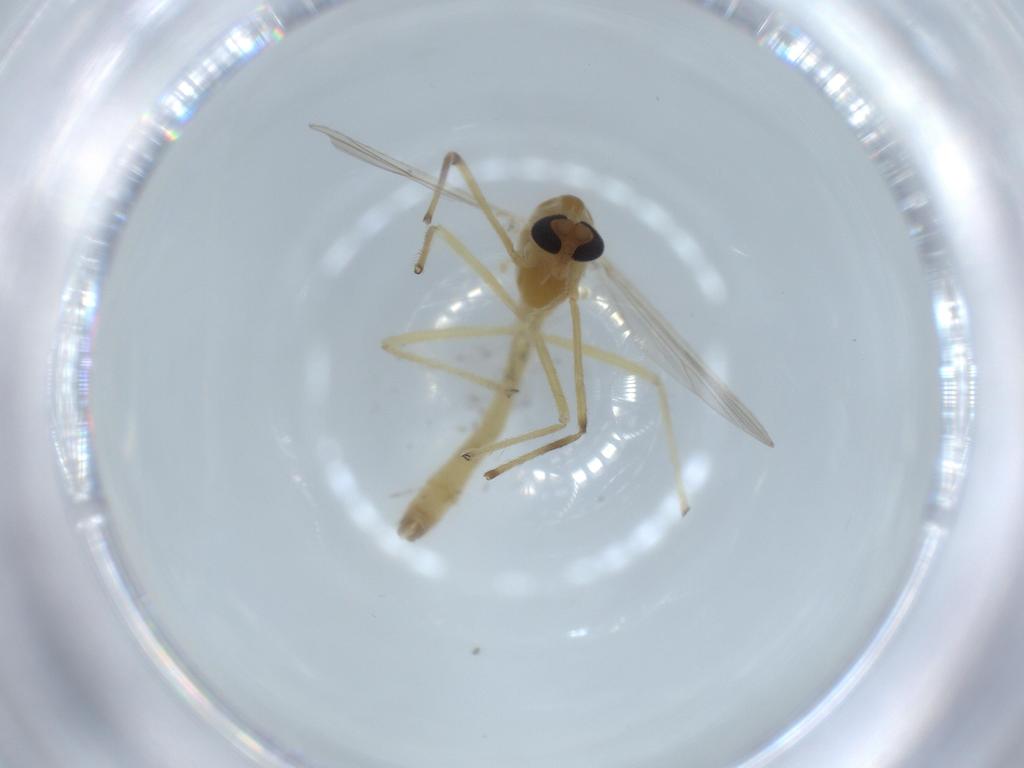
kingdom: Animalia
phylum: Arthropoda
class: Insecta
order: Diptera
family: Chironomidae
